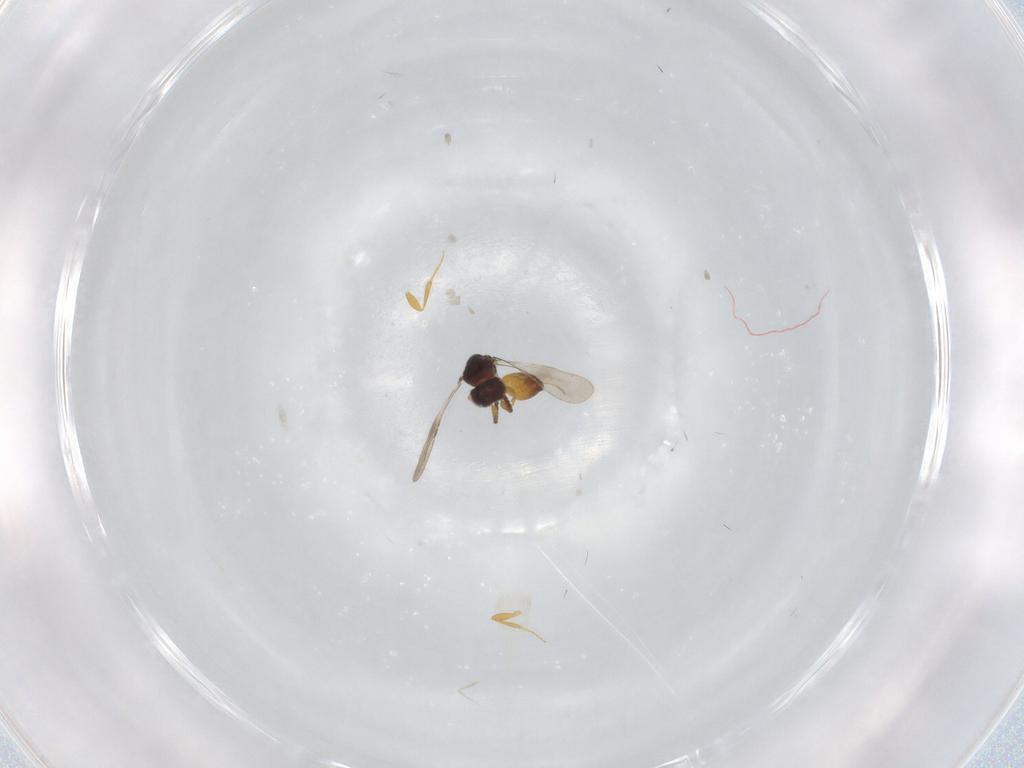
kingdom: Animalia
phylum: Arthropoda
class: Insecta
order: Hymenoptera
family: Ceraphronidae
